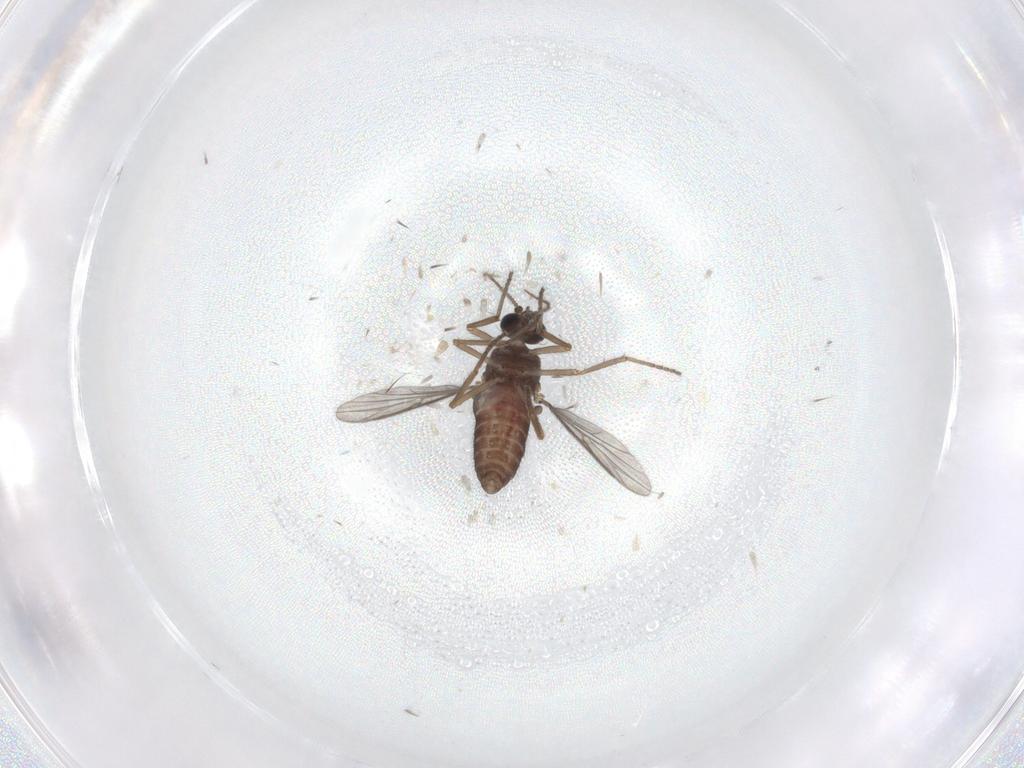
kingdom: Animalia
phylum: Arthropoda
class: Insecta
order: Diptera
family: Ceratopogonidae
